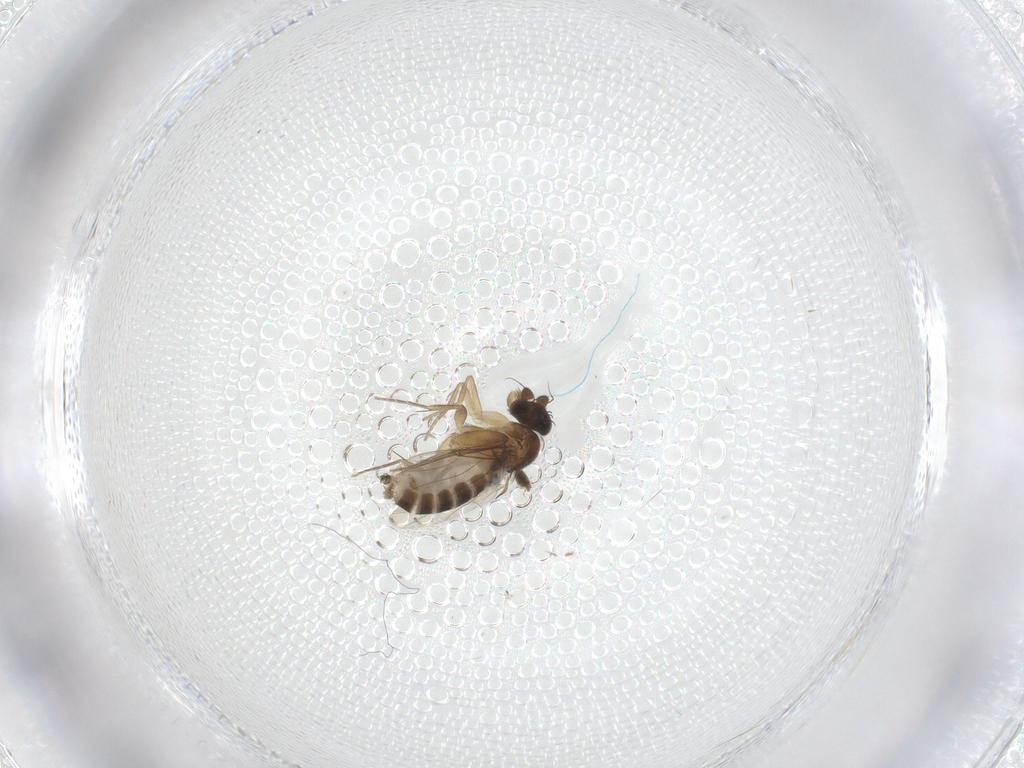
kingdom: Animalia
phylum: Arthropoda
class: Insecta
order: Diptera
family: Phoridae
